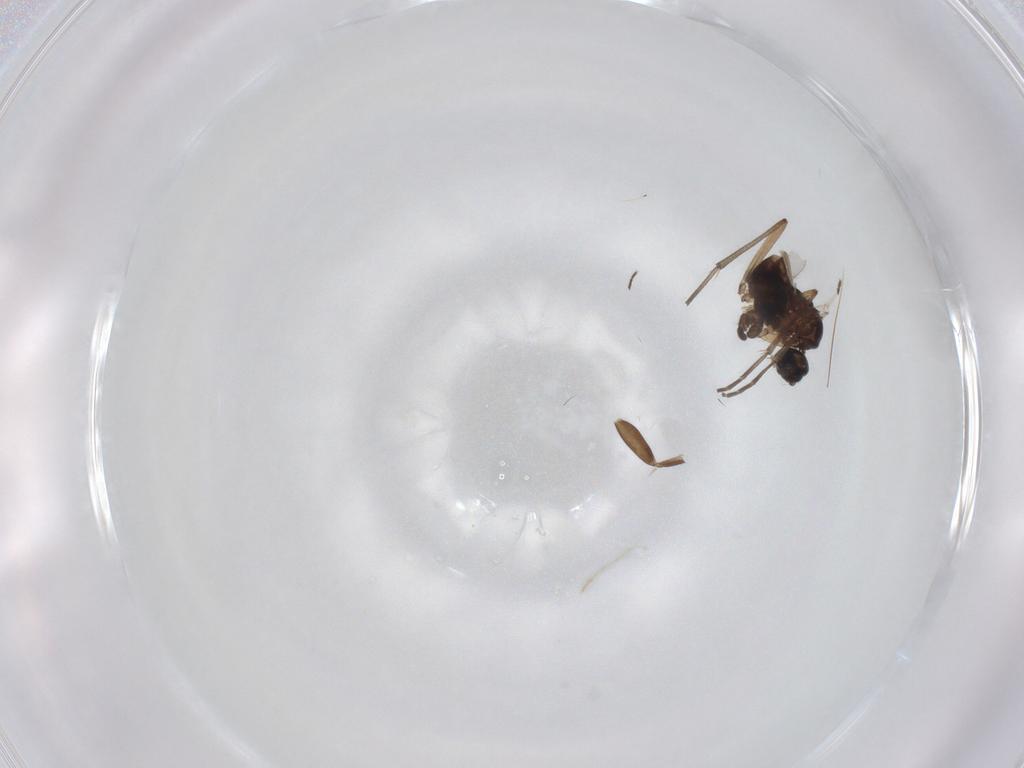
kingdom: Animalia
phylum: Arthropoda
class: Insecta
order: Diptera
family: Sciaridae
